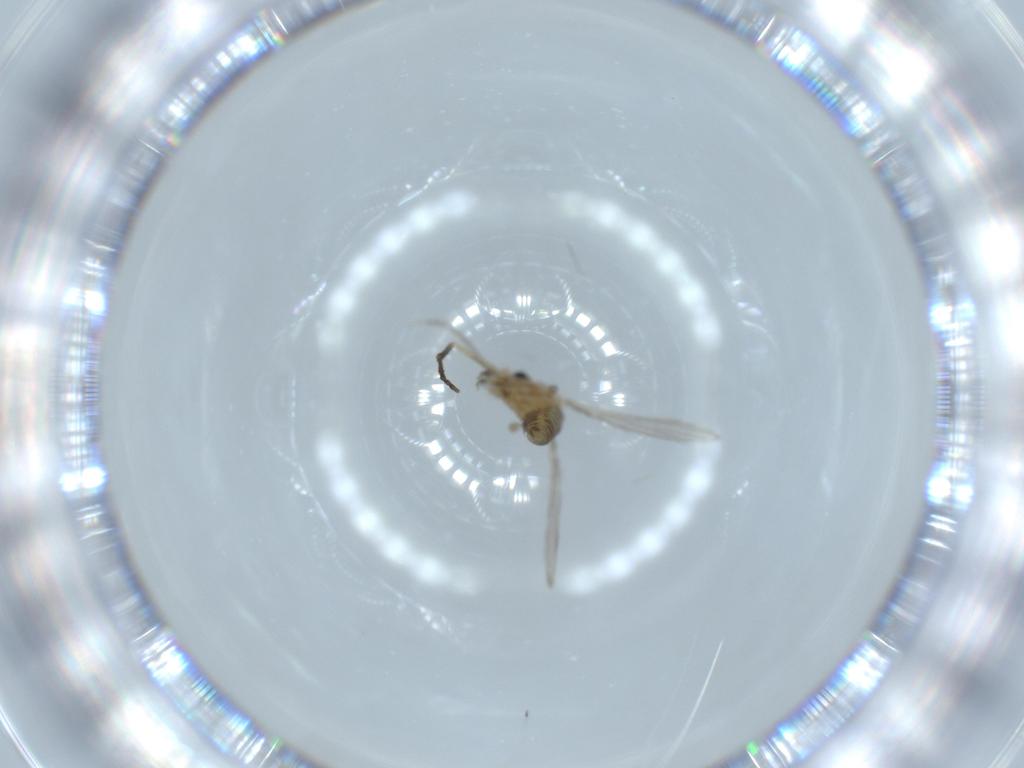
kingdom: Animalia
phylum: Arthropoda
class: Insecta
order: Diptera
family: Psychodidae
